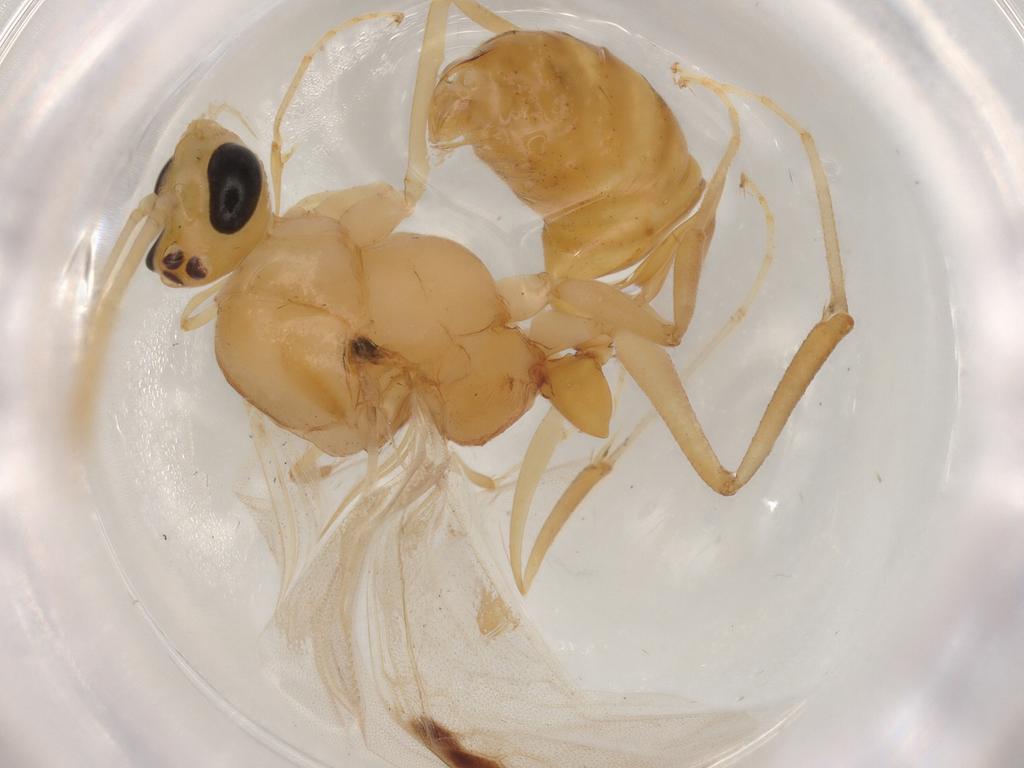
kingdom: Animalia
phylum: Arthropoda
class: Insecta
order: Hymenoptera
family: Formicidae
